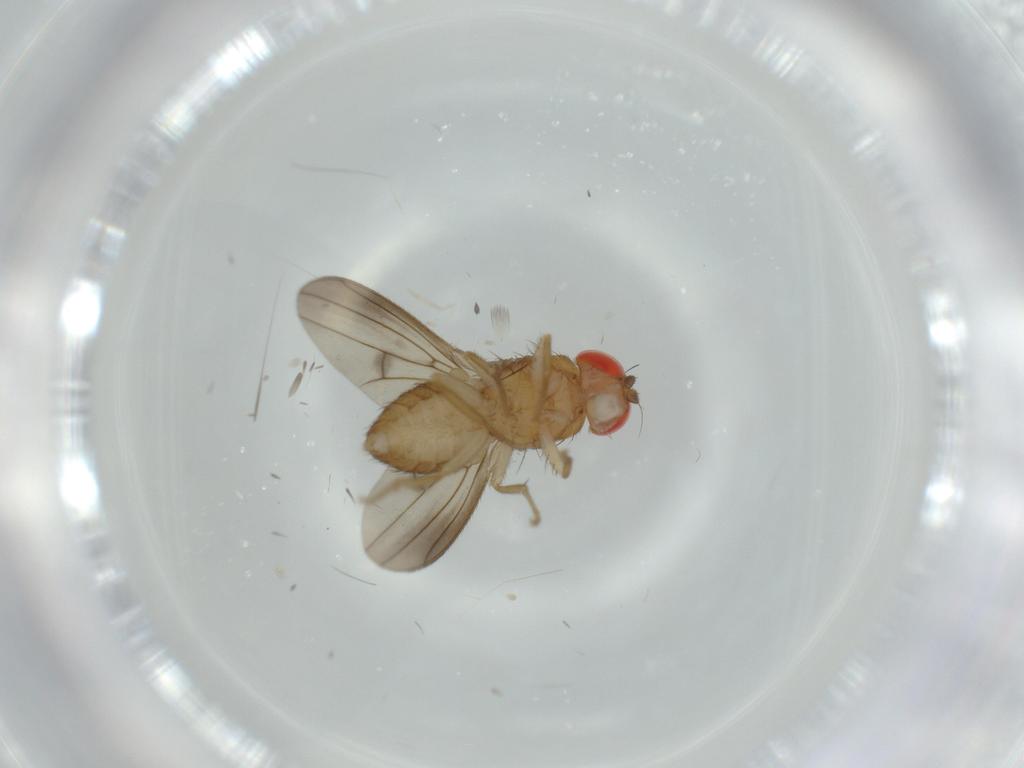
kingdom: Animalia
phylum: Arthropoda
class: Insecta
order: Diptera
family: Drosophilidae
